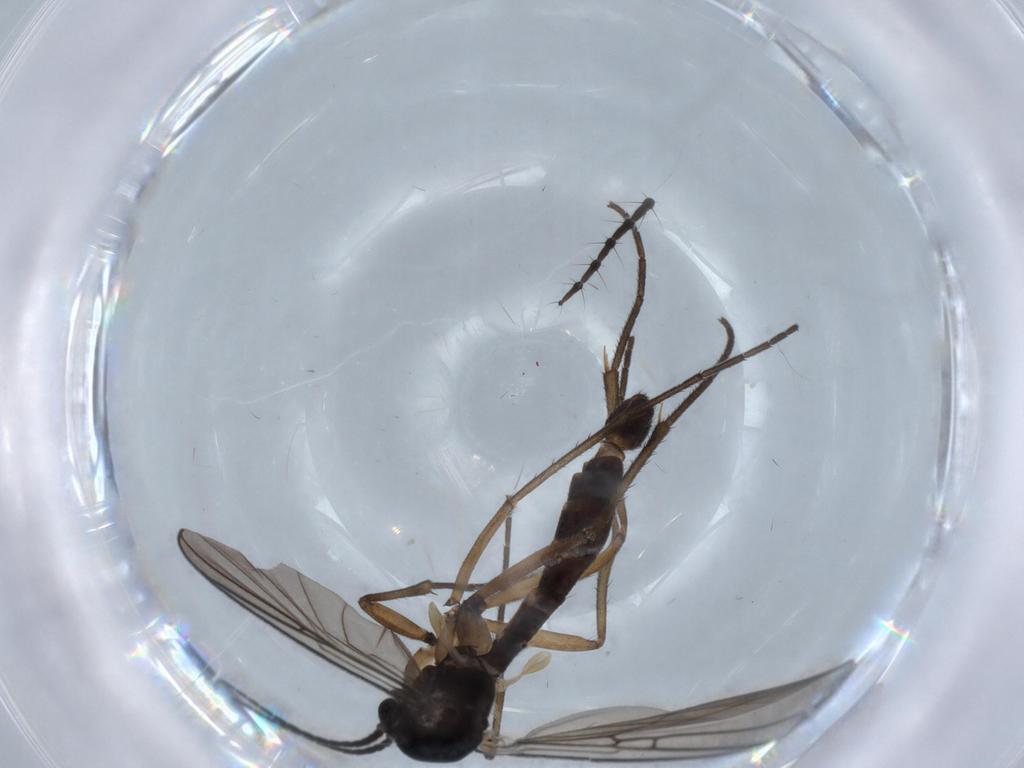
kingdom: Animalia
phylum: Arthropoda
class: Insecta
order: Diptera
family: Muscidae
